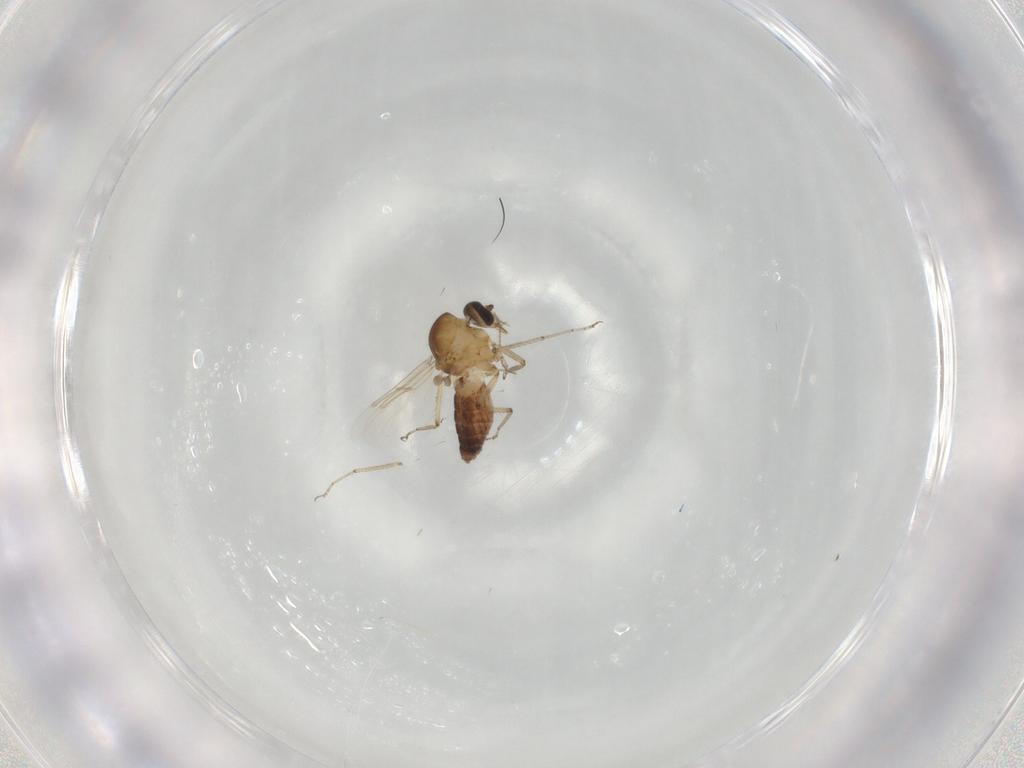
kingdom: Animalia
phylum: Arthropoda
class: Insecta
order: Diptera
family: Ceratopogonidae
